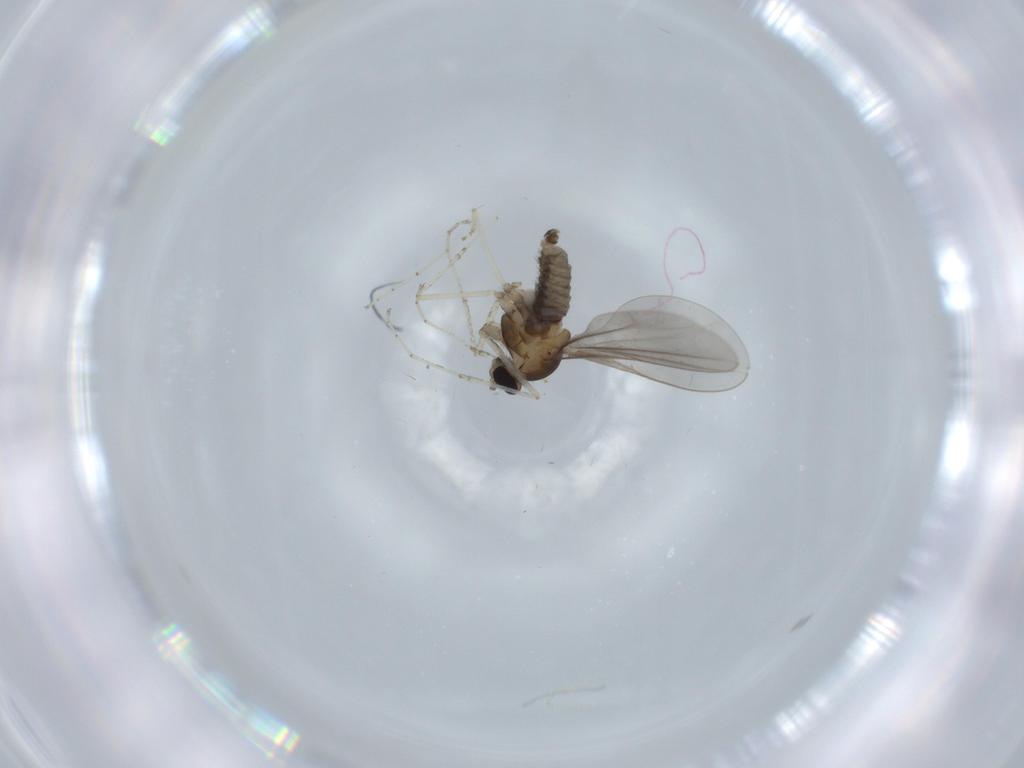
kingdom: Animalia
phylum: Arthropoda
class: Insecta
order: Diptera
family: Cecidomyiidae
